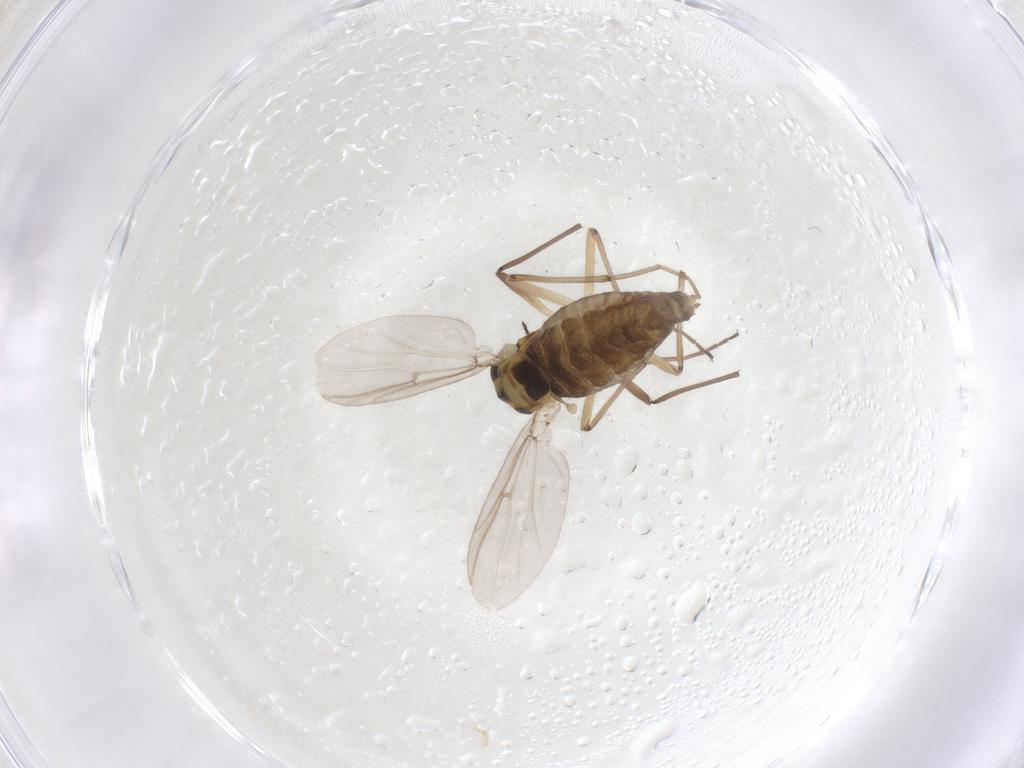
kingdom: Animalia
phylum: Arthropoda
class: Insecta
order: Diptera
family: Chironomidae
